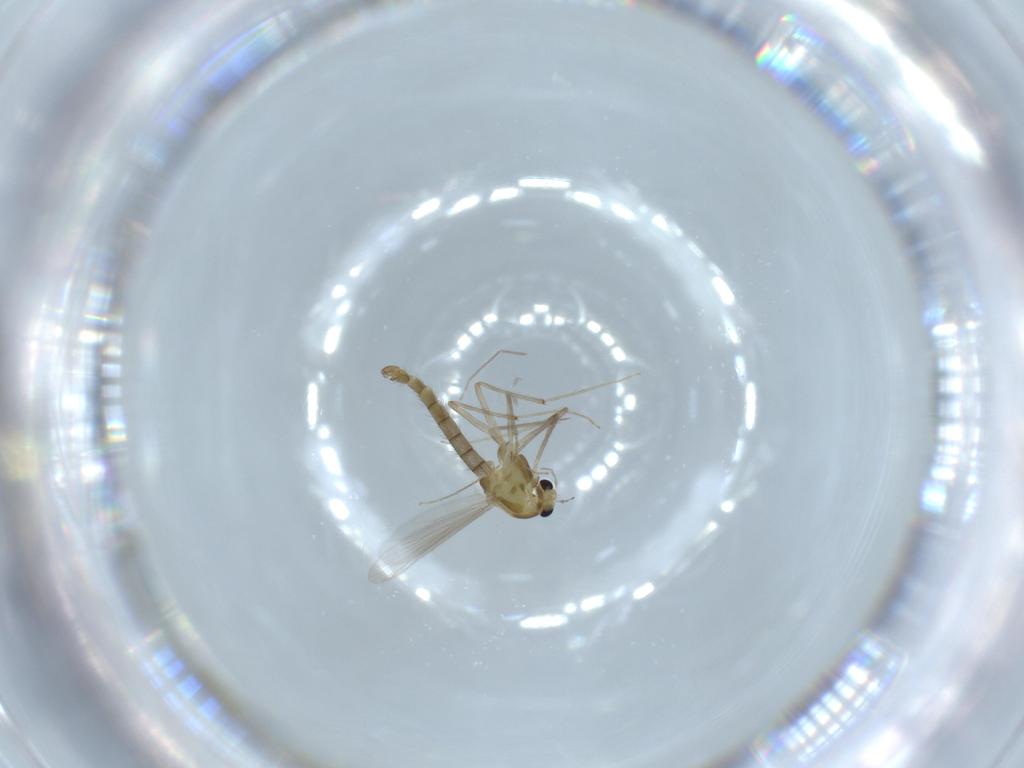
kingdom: Animalia
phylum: Arthropoda
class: Insecta
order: Diptera
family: Chironomidae
